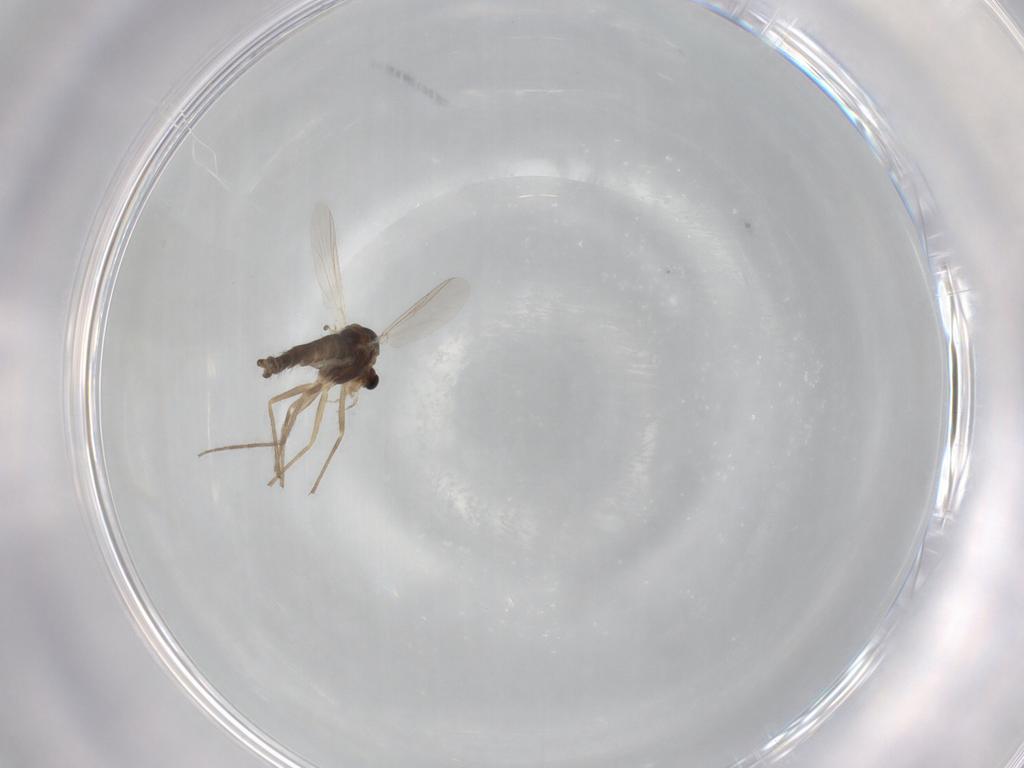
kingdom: Animalia
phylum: Arthropoda
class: Insecta
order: Diptera
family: Chironomidae
